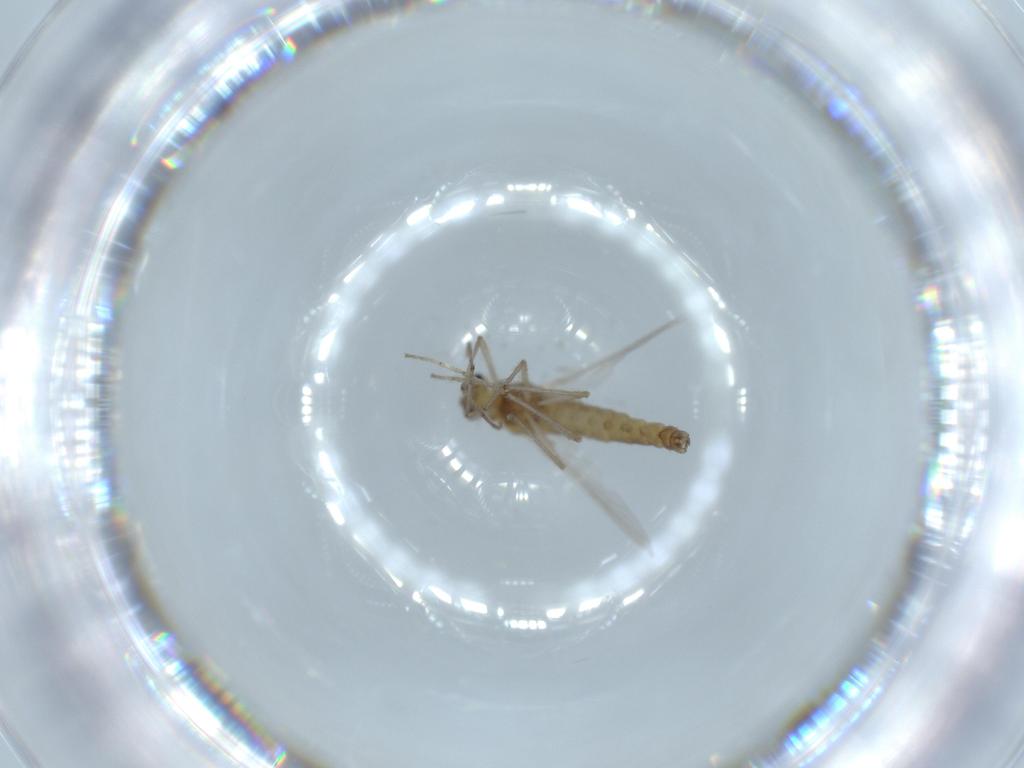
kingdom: Animalia
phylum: Arthropoda
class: Insecta
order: Diptera
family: Chironomidae
